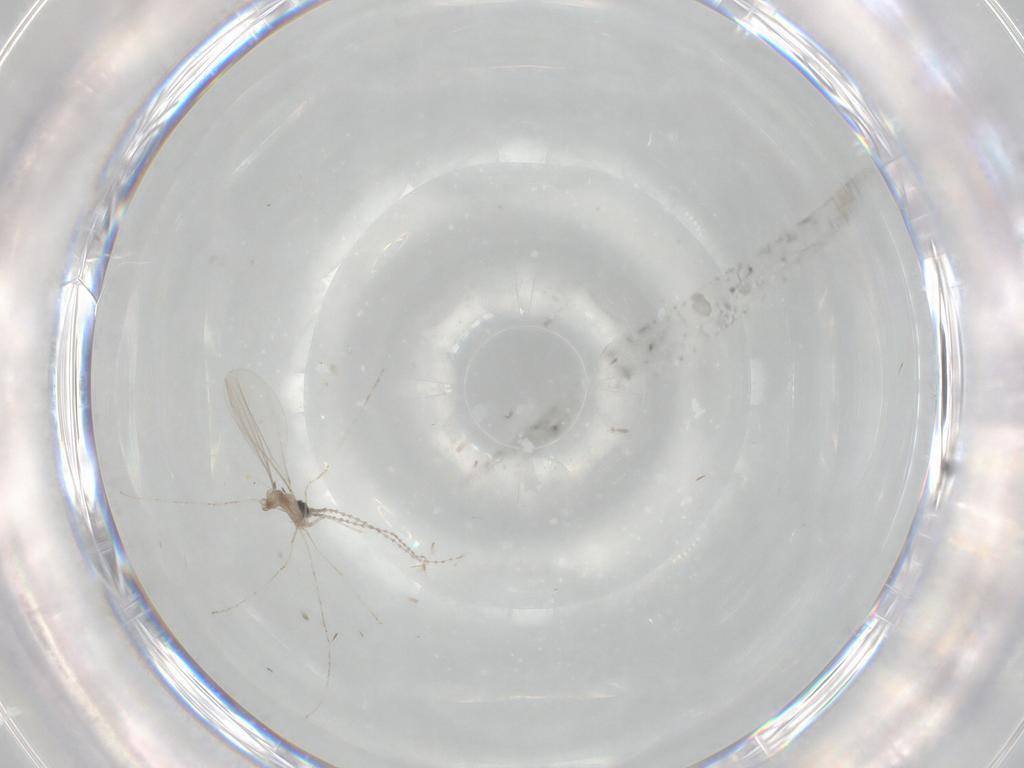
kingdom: Animalia
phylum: Arthropoda
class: Insecta
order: Diptera
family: Cecidomyiidae
